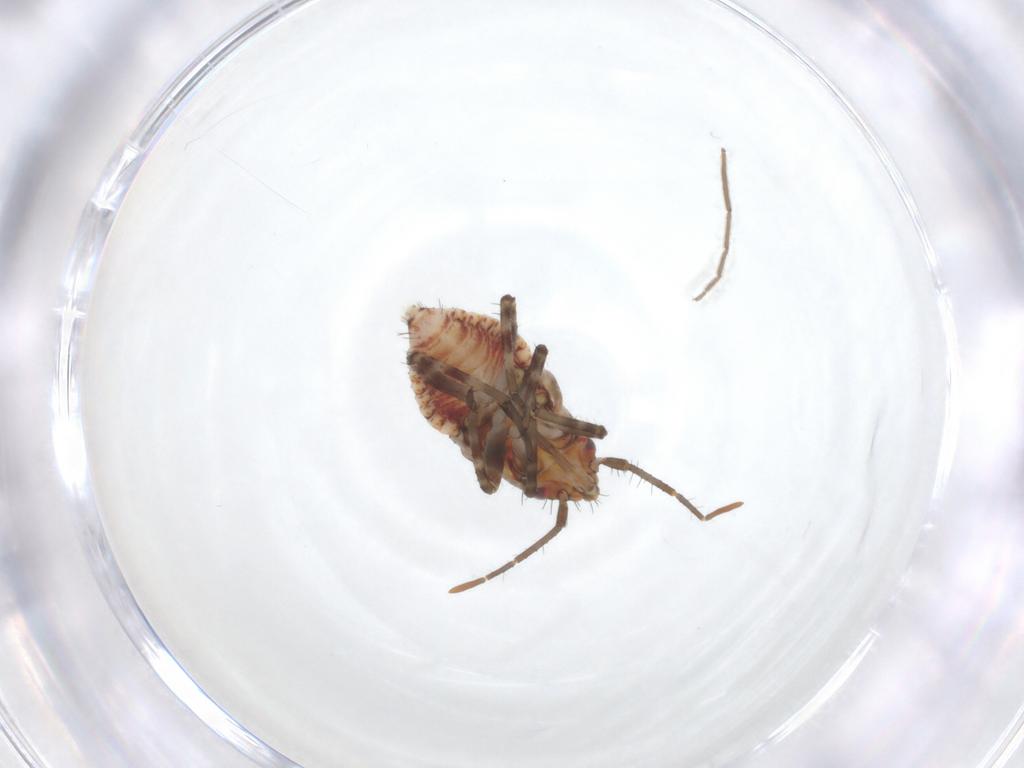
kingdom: Animalia
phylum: Arthropoda
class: Insecta
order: Hemiptera
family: Miridae
